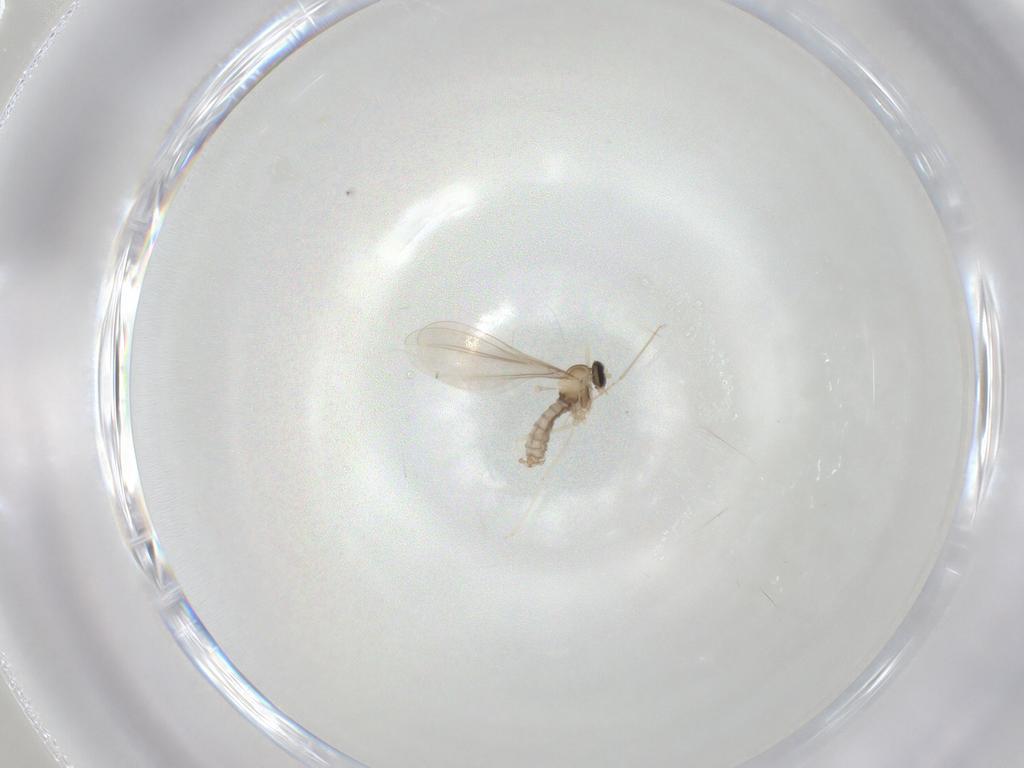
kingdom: Animalia
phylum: Arthropoda
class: Insecta
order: Diptera
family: Cecidomyiidae
